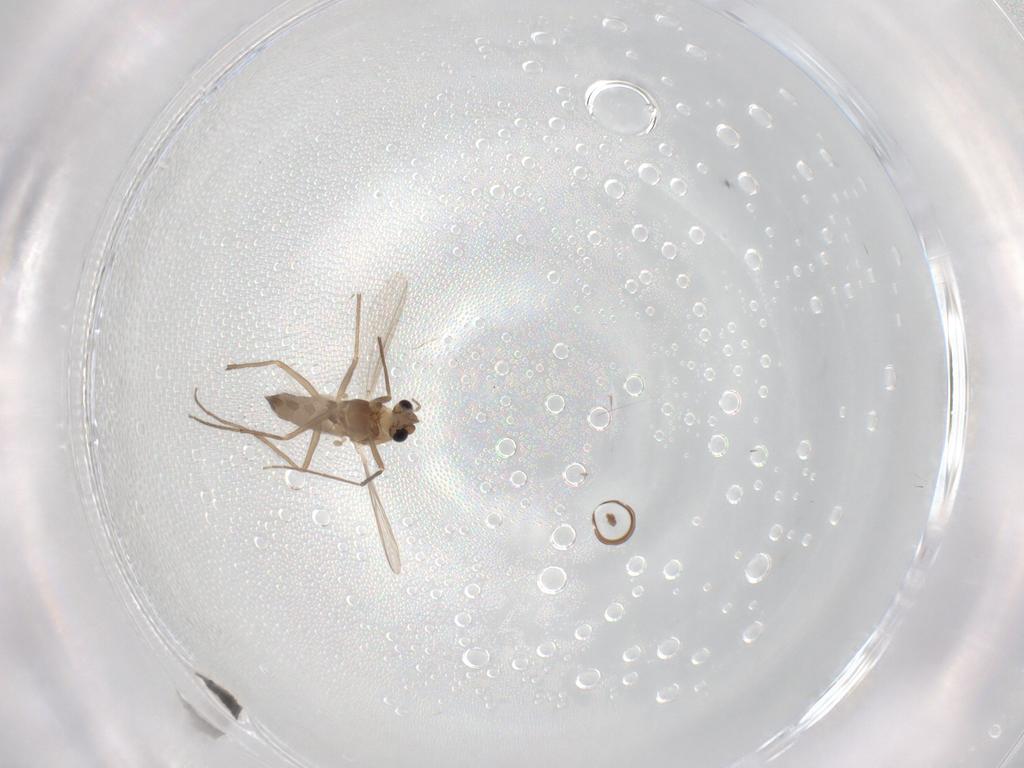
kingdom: Animalia
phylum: Arthropoda
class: Insecta
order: Diptera
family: Chironomidae
